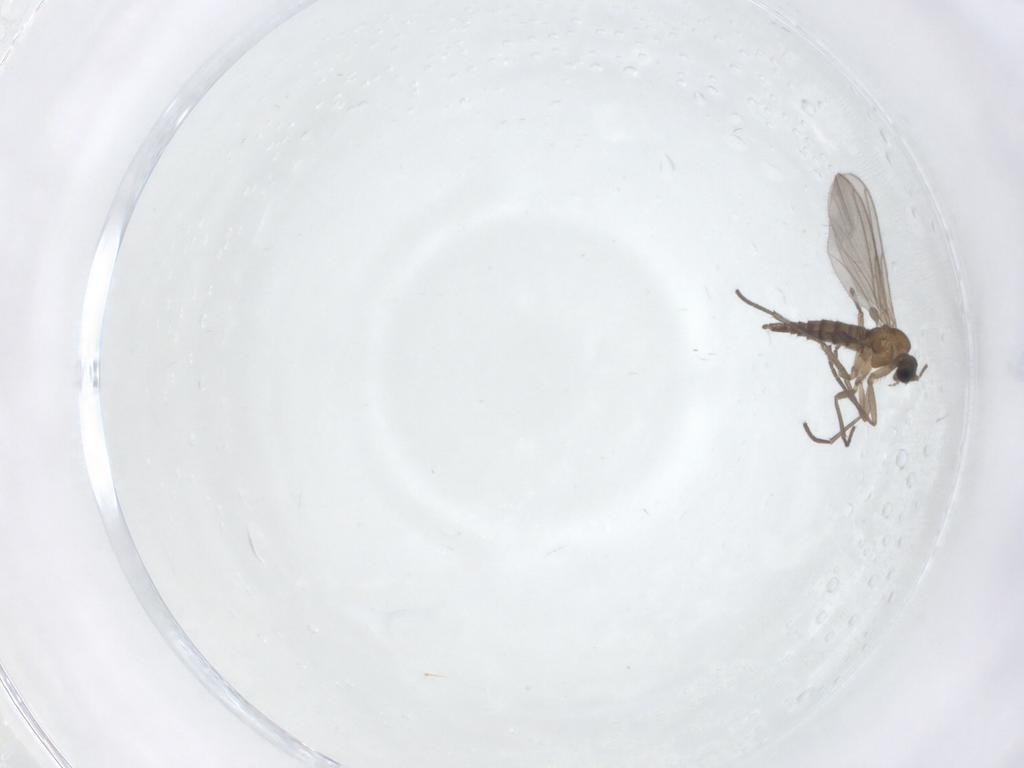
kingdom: Animalia
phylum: Arthropoda
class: Insecta
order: Diptera
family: Sciaridae
